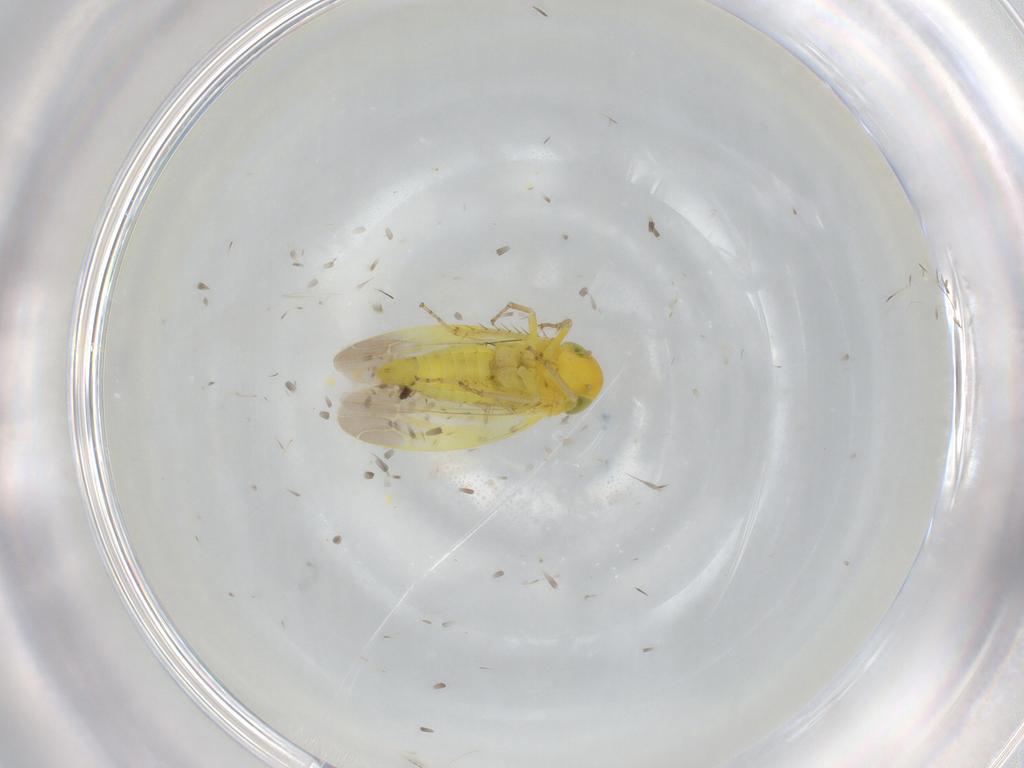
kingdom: Animalia
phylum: Arthropoda
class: Insecta
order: Hemiptera
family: Cicadellidae
